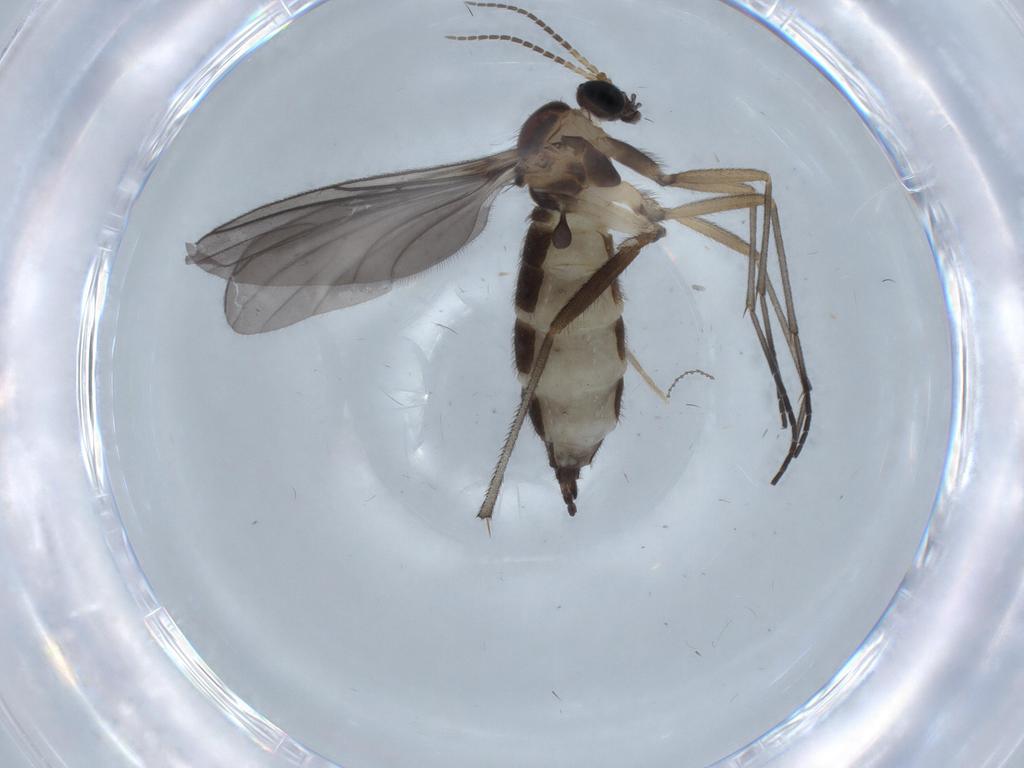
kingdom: Animalia
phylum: Arthropoda
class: Insecta
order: Diptera
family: Sciaridae
